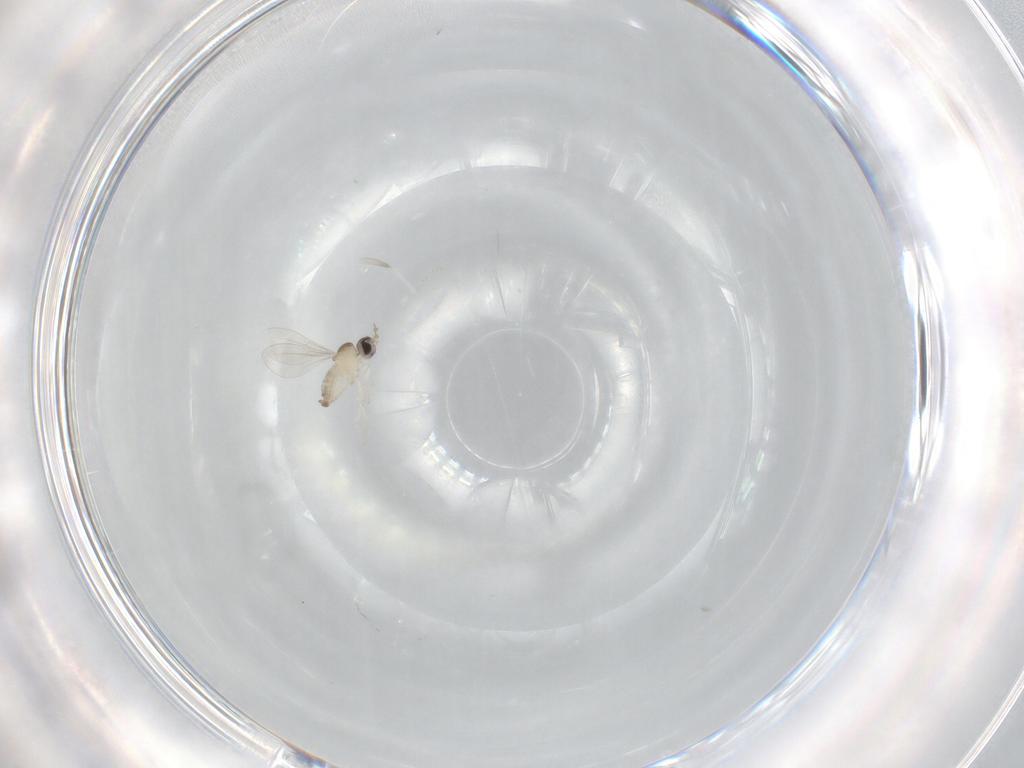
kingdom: Animalia
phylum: Arthropoda
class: Insecta
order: Diptera
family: Cecidomyiidae
